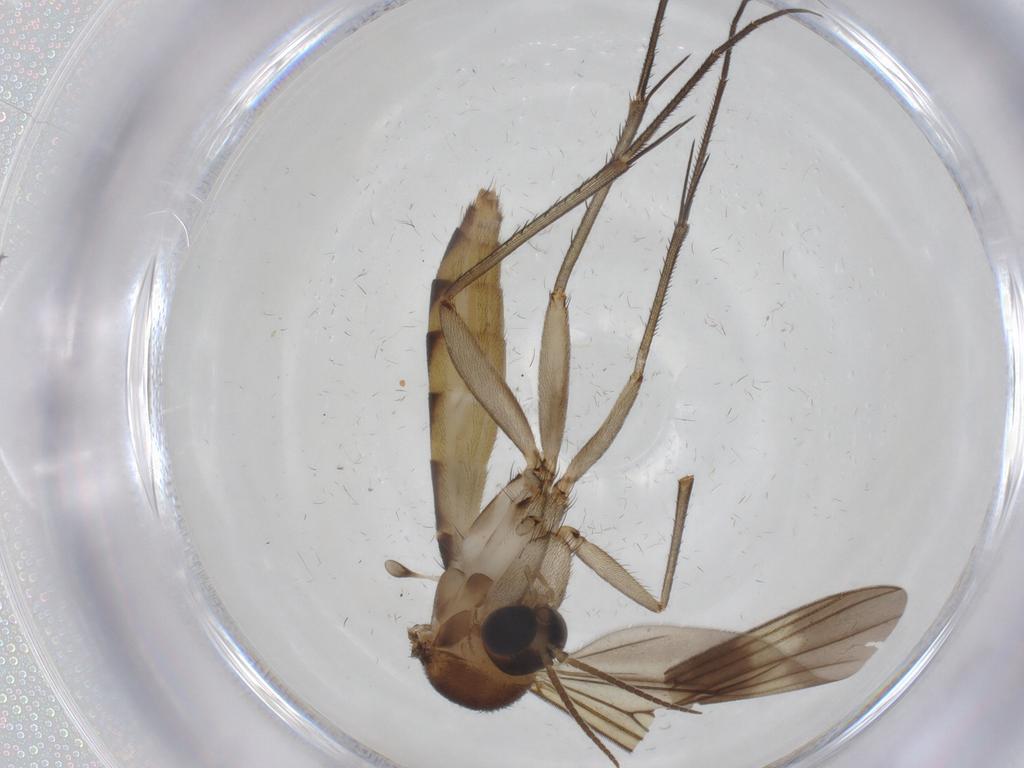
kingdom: Animalia
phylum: Arthropoda
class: Insecta
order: Diptera
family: Mycetophilidae
